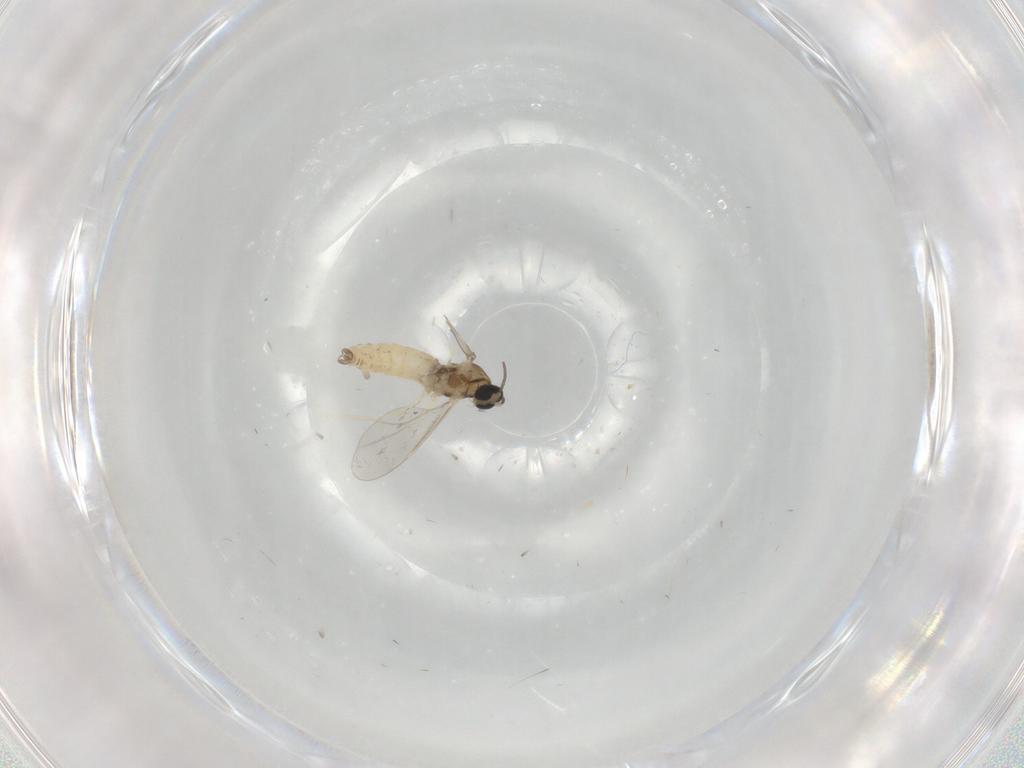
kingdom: Animalia
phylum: Arthropoda
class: Insecta
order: Diptera
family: Cecidomyiidae
